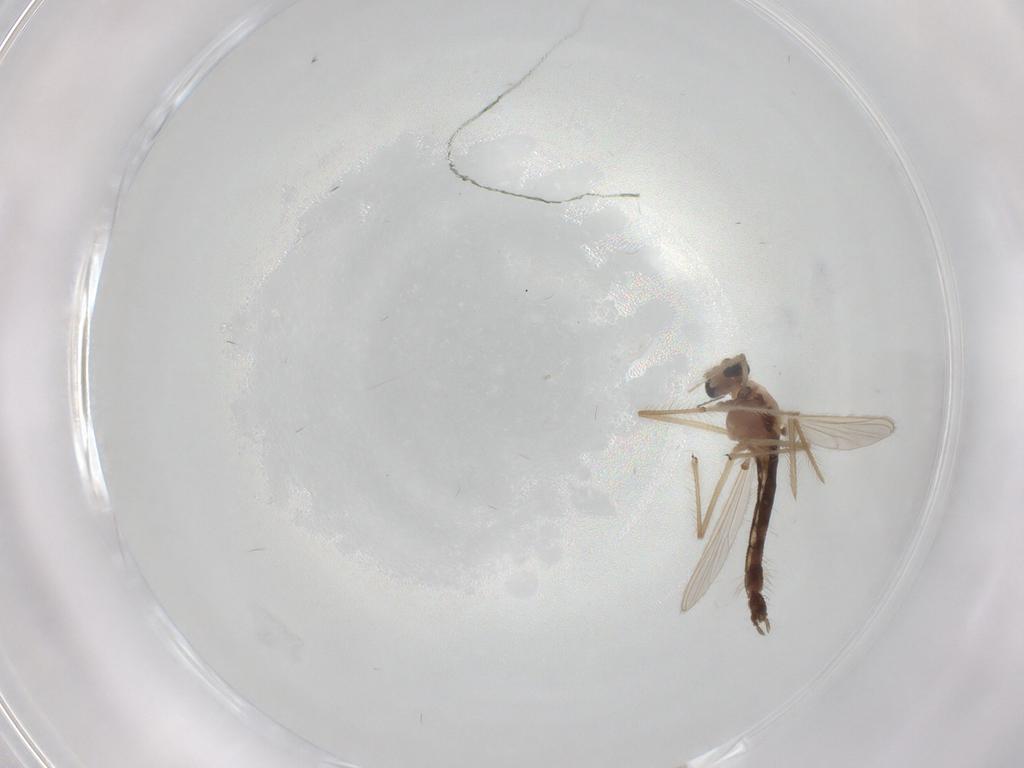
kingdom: Animalia
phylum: Arthropoda
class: Insecta
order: Diptera
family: Chironomidae
